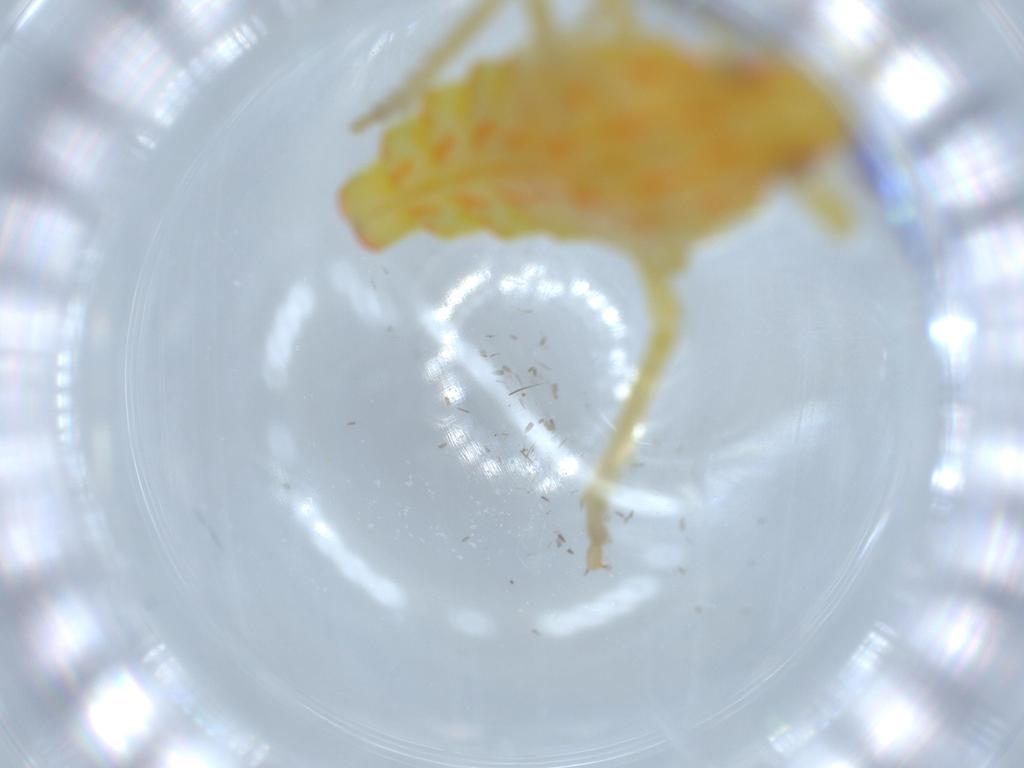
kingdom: Animalia
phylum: Arthropoda
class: Insecta
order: Hemiptera
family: Tropiduchidae
